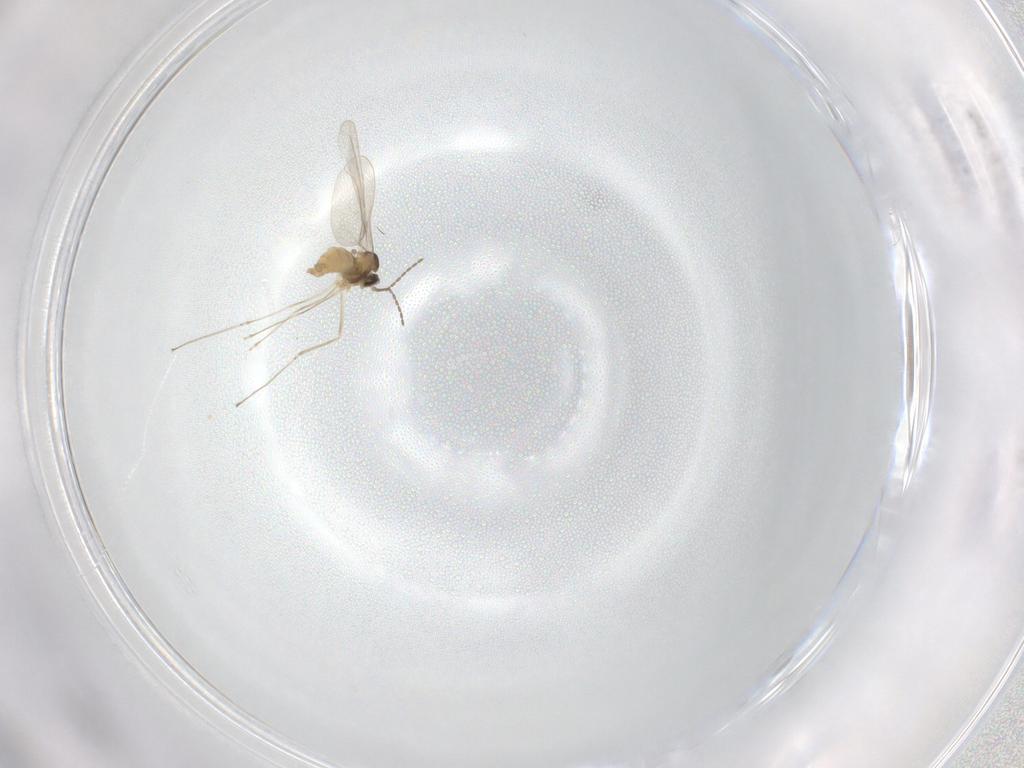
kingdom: Animalia
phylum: Arthropoda
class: Insecta
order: Diptera
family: Cecidomyiidae
